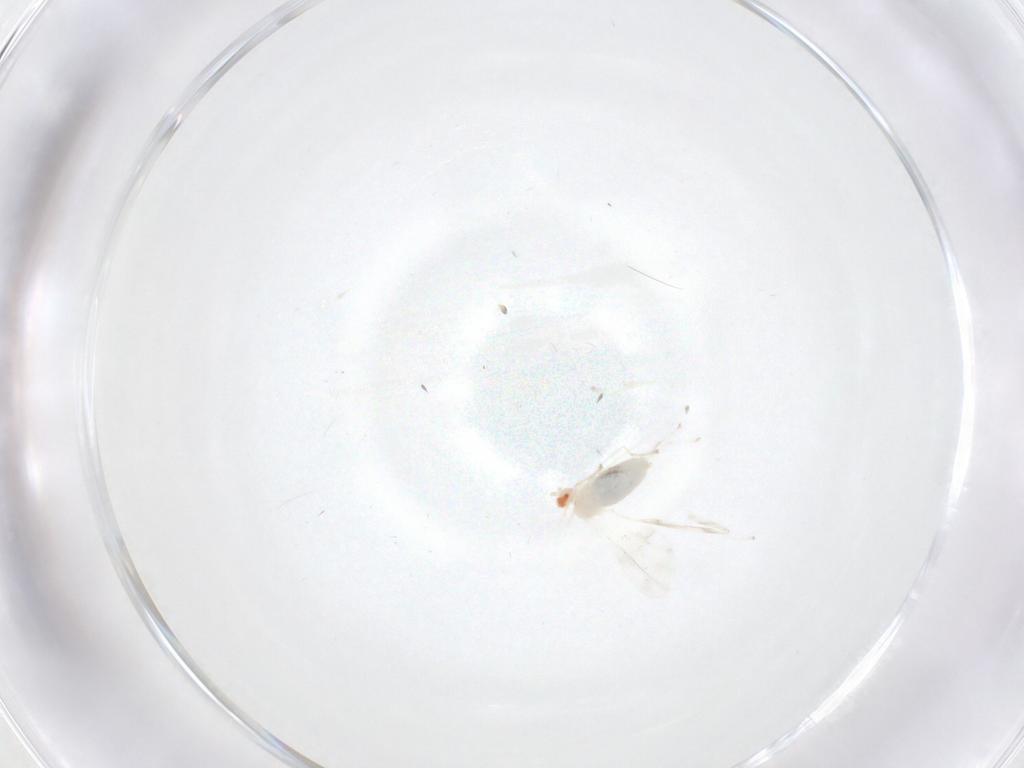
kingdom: Animalia
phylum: Arthropoda
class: Insecta
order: Diptera
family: Cecidomyiidae
